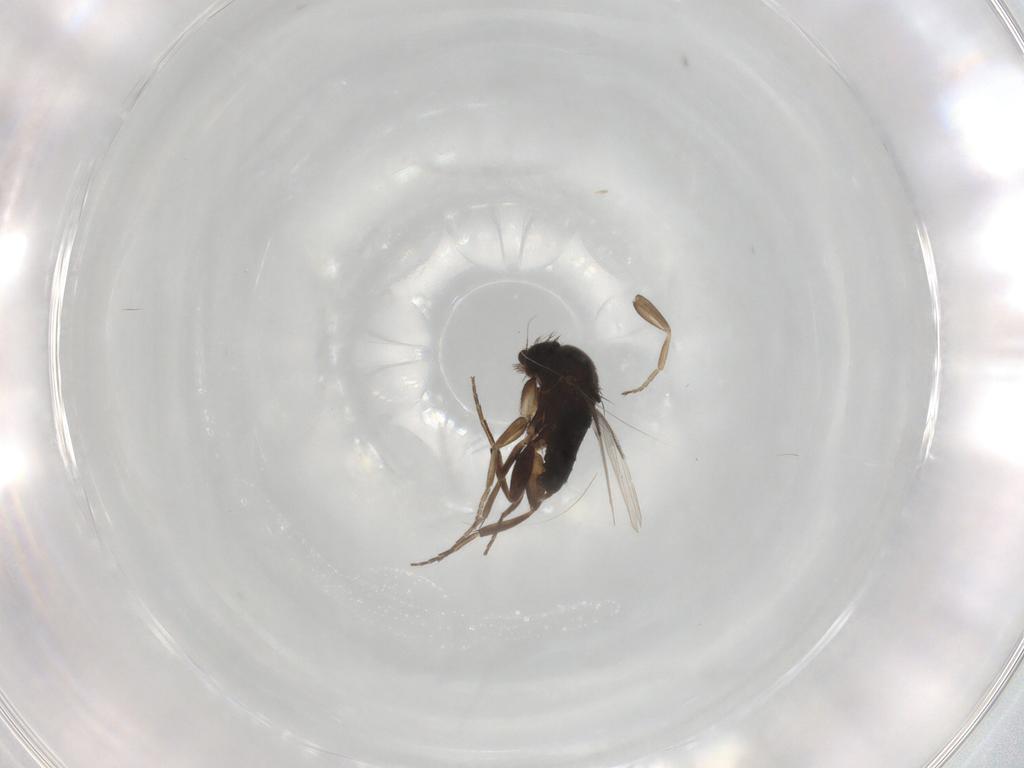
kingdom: Animalia
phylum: Arthropoda
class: Insecta
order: Diptera
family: Phoridae
